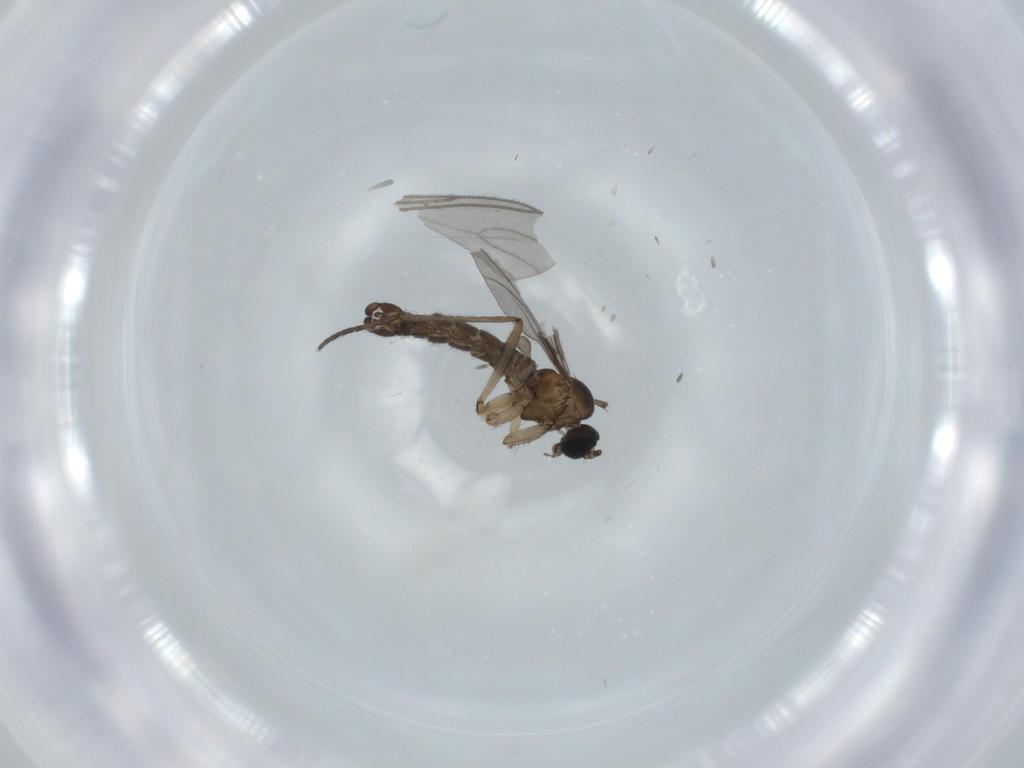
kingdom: Animalia
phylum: Arthropoda
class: Insecta
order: Diptera
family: Sciaridae
